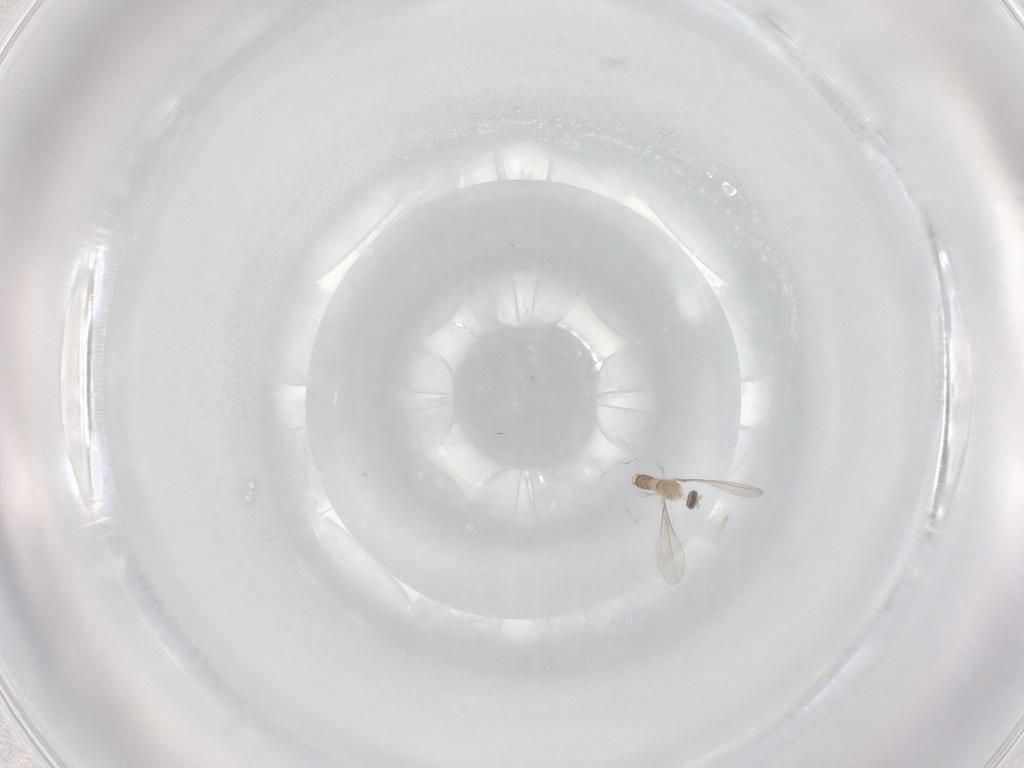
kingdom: Animalia
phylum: Arthropoda
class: Insecta
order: Diptera
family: Cecidomyiidae
